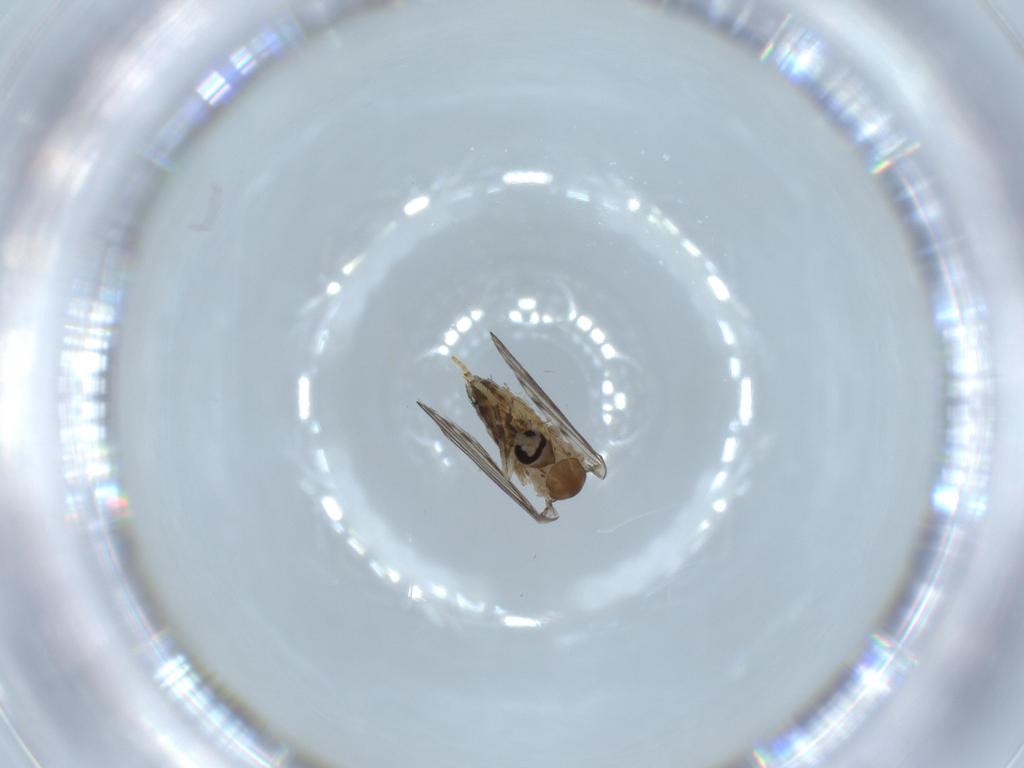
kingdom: Animalia
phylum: Arthropoda
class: Insecta
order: Diptera
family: Psychodidae
